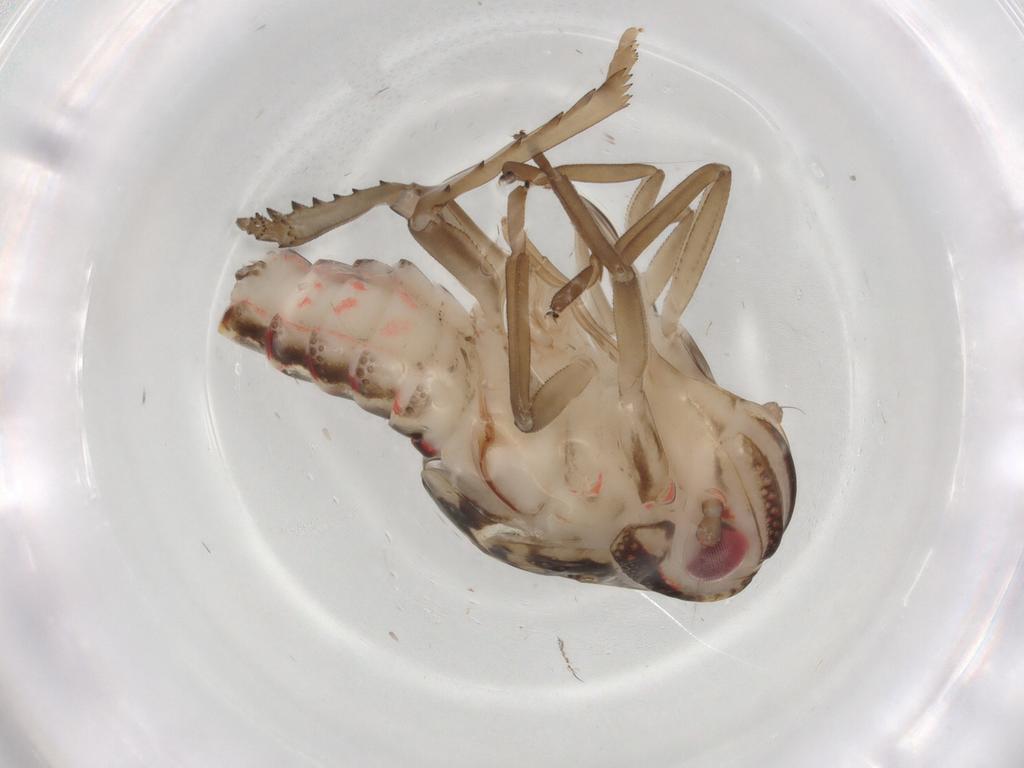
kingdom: Animalia
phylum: Arthropoda
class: Insecta
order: Hemiptera
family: Nogodinidae
